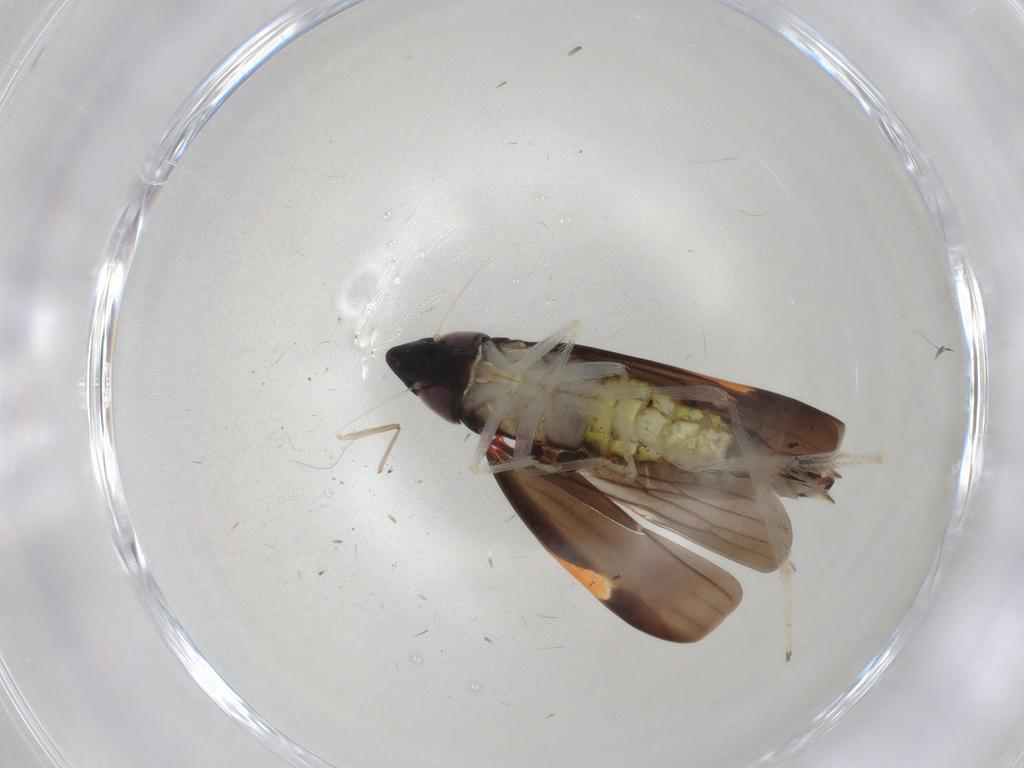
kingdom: Animalia
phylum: Arthropoda
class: Insecta
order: Hemiptera
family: Cicadellidae
